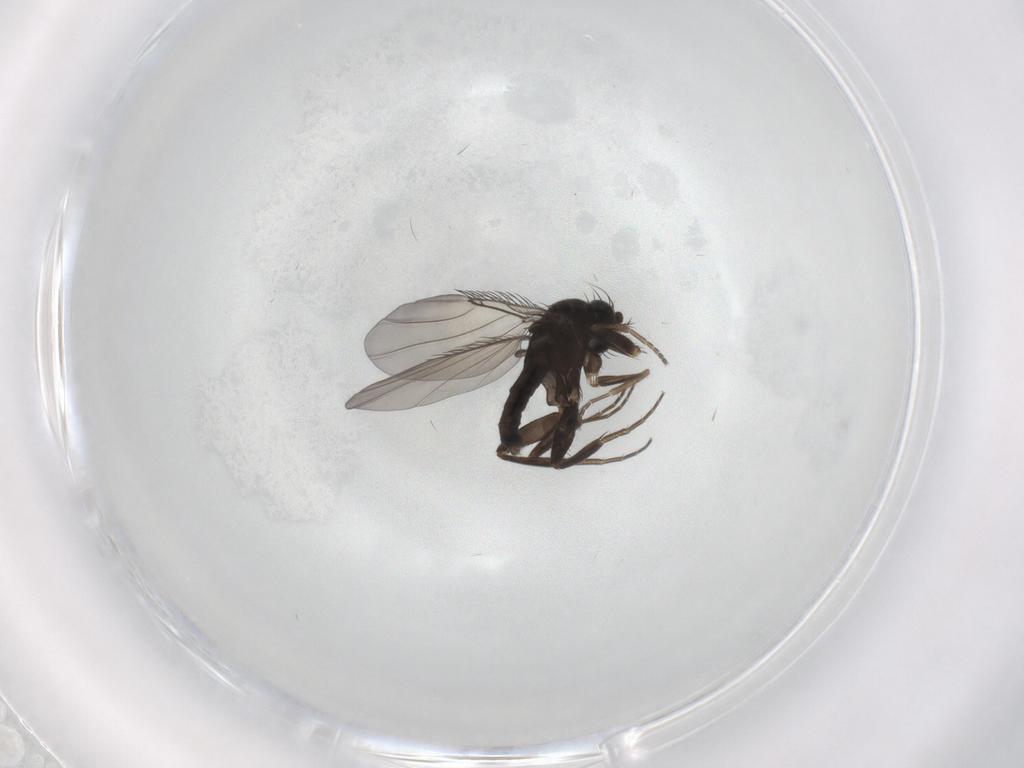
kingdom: Animalia
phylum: Arthropoda
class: Insecta
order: Diptera
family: Phoridae
